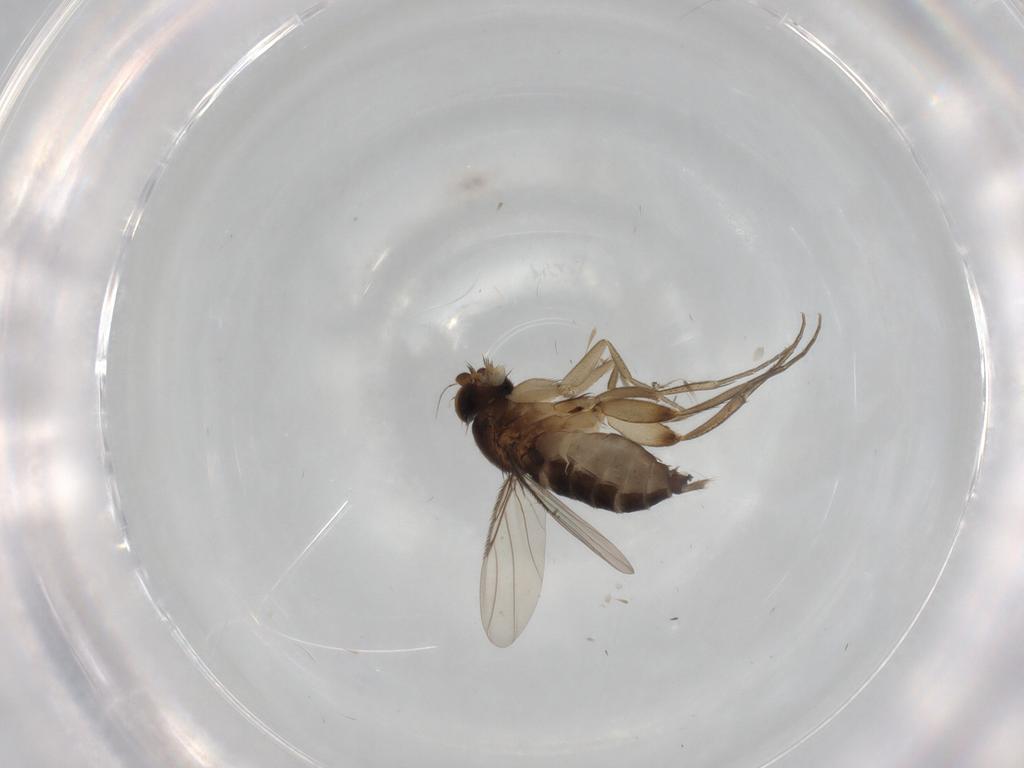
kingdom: Animalia
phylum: Arthropoda
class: Insecta
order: Diptera
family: Phoridae
